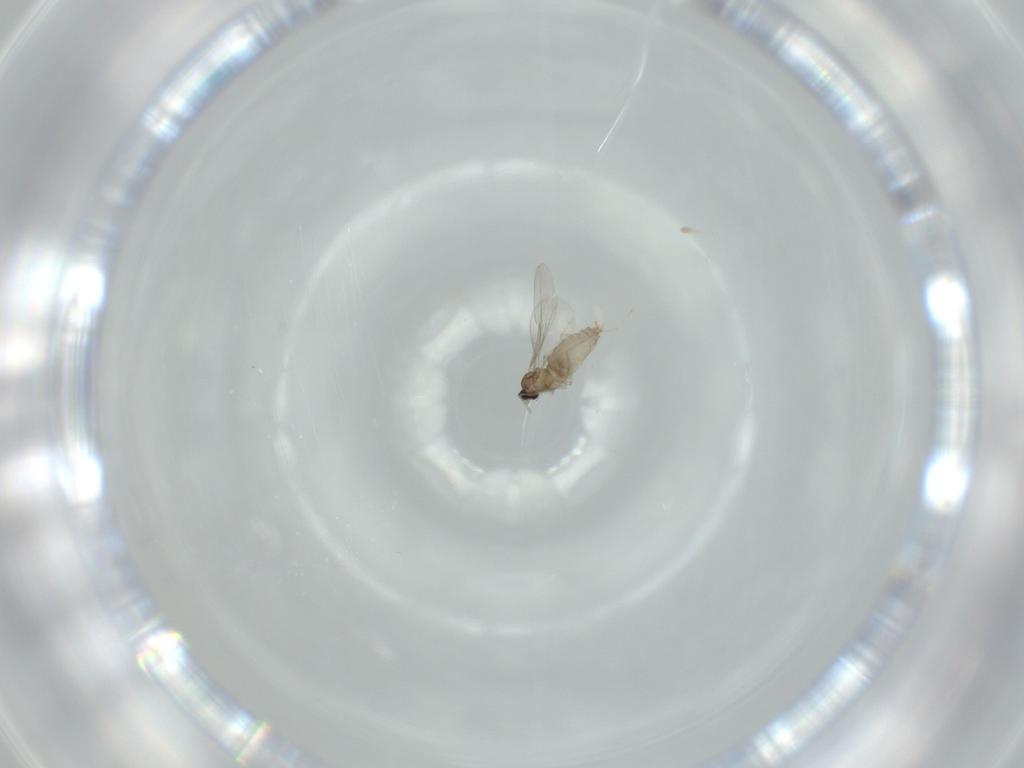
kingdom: Animalia
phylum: Arthropoda
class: Insecta
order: Diptera
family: Cecidomyiidae
